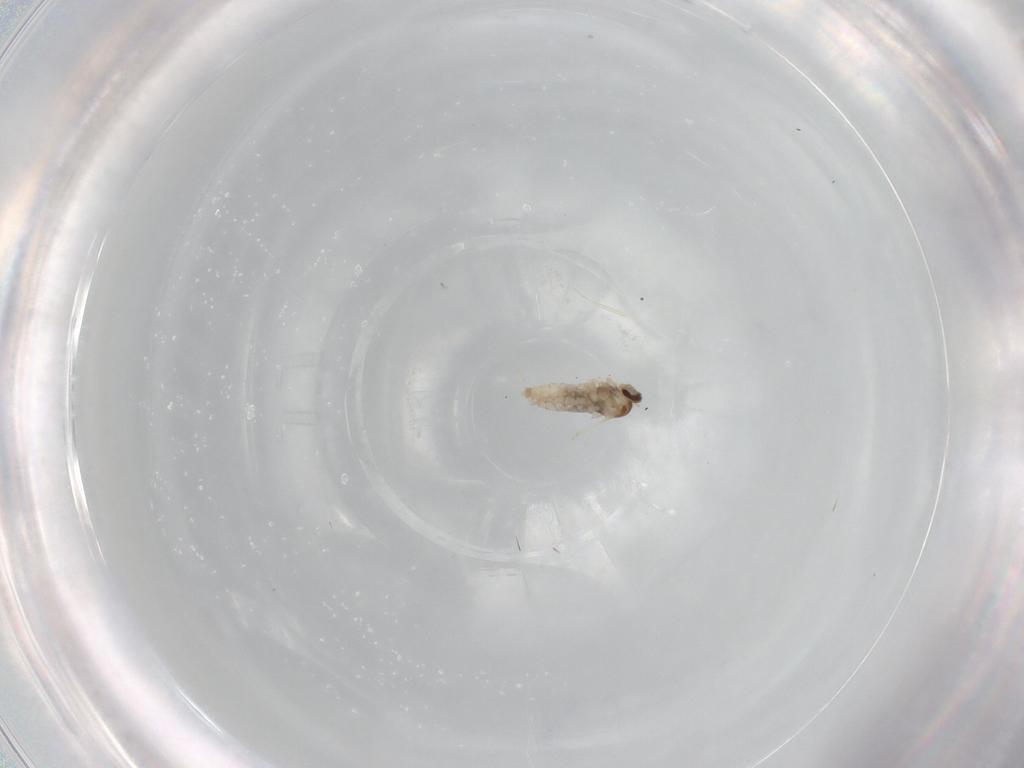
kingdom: Animalia
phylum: Arthropoda
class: Insecta
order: Diptera
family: Cecidomyiidae
